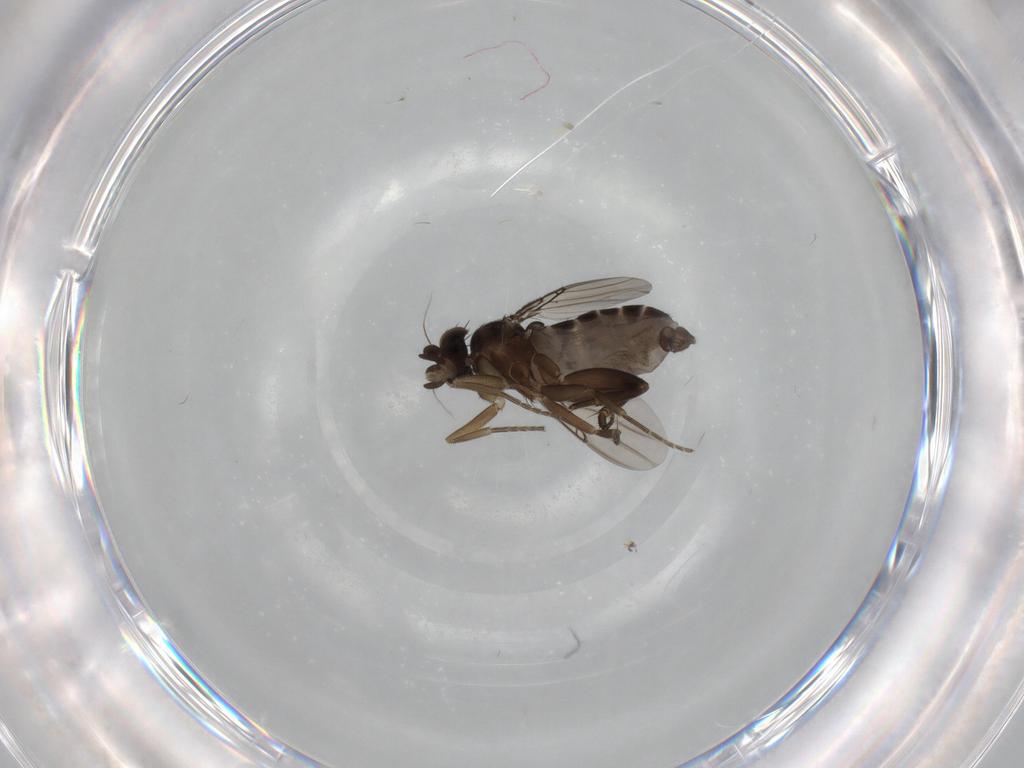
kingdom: Animalia
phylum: Arthropoda
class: Insecta
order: Diptera
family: Phoridae
